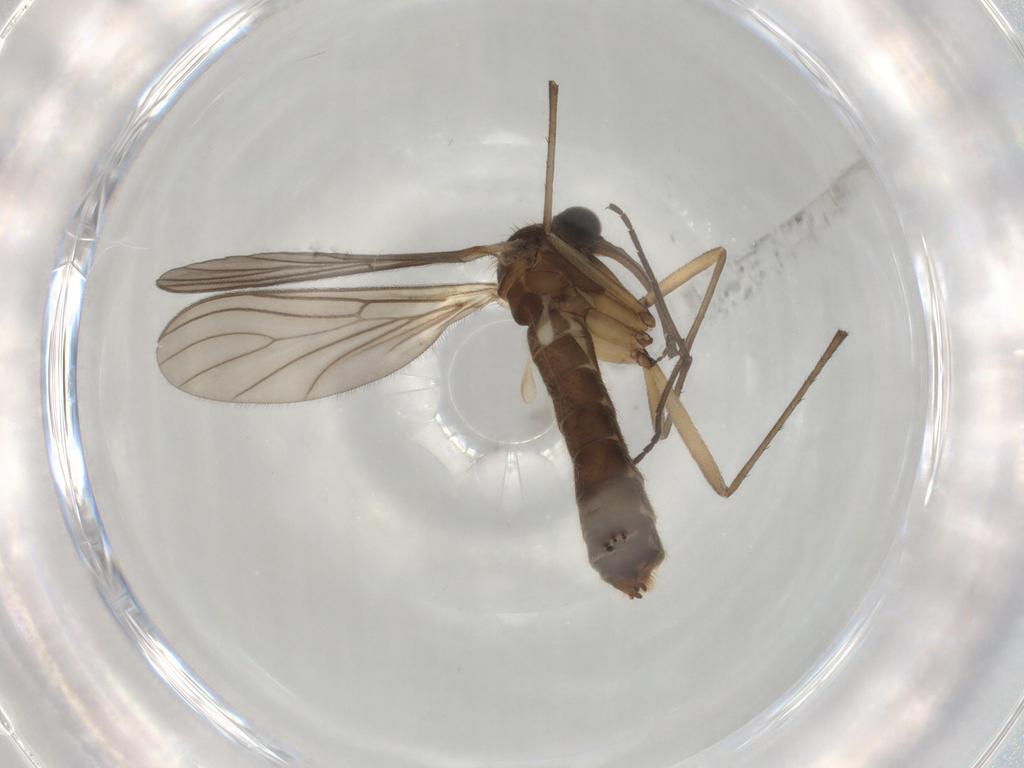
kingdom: Animalia
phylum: Arthropoda
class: Insecta
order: Diptera
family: Rangomaramidae
